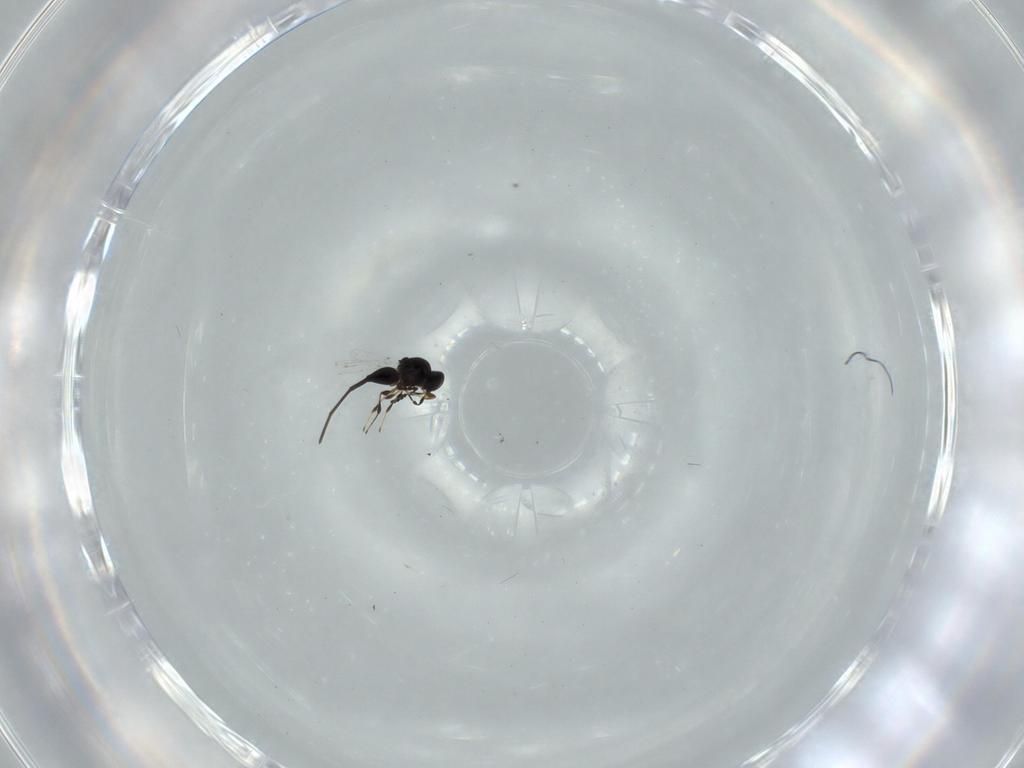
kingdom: Animalia
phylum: Arthropoda
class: Insecta
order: Hymenoptera
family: Platygastridae
